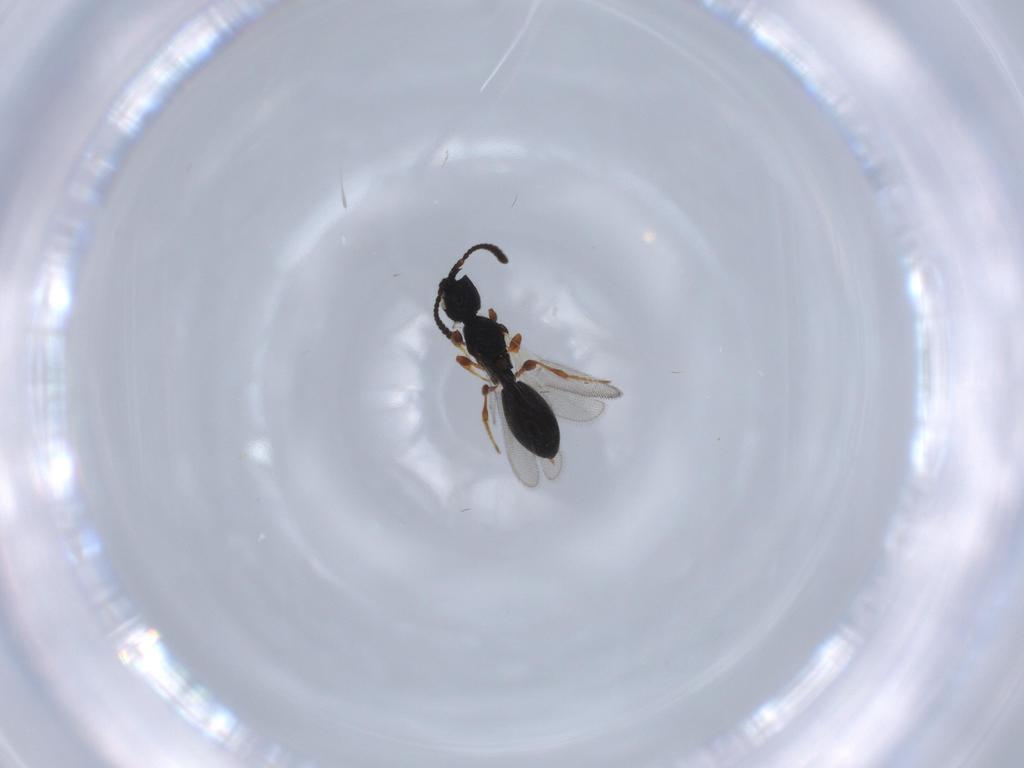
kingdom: Animalia
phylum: Arthropoda
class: Insecta
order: Hymenoptera
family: Diapriidae
